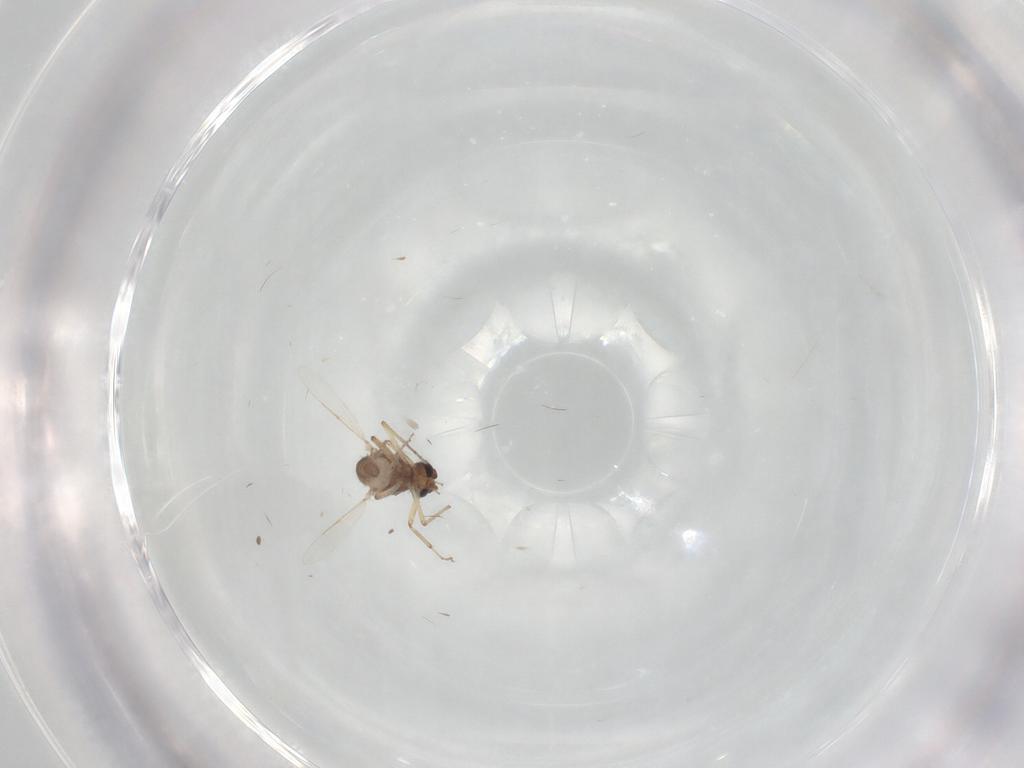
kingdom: Animalia
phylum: Arthropoda
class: Insecta
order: Diptera
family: Ceratopogonidae
